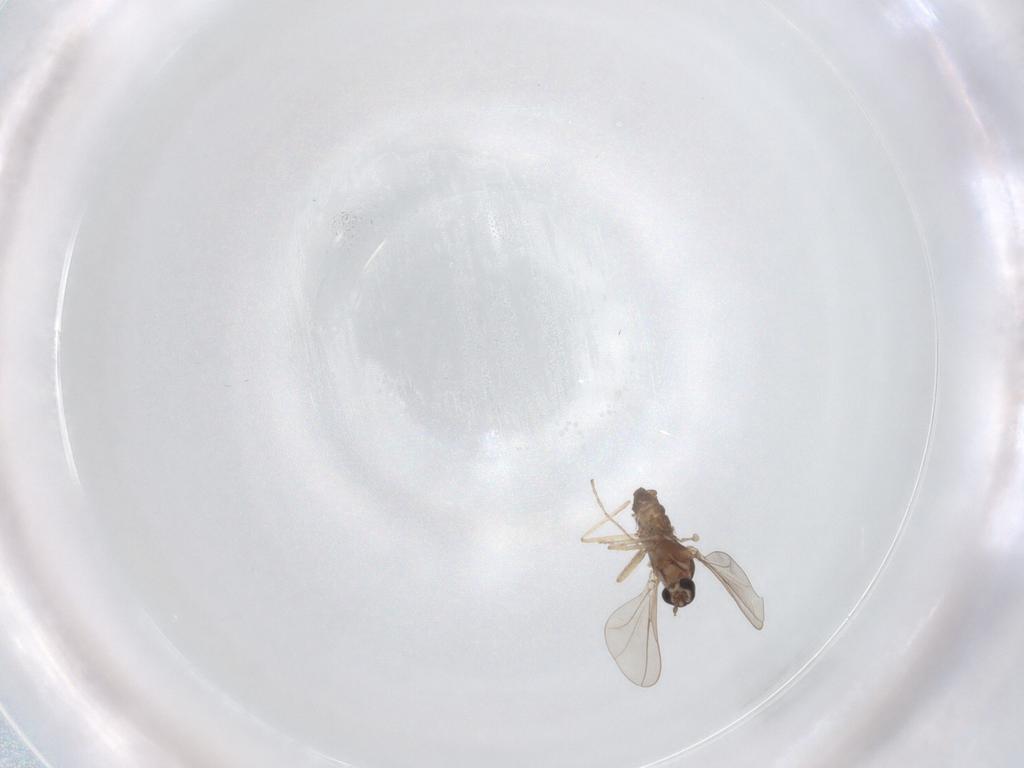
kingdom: Animalia
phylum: Arthropoda
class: Insecta
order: Diptera
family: Cecidomyiidae
